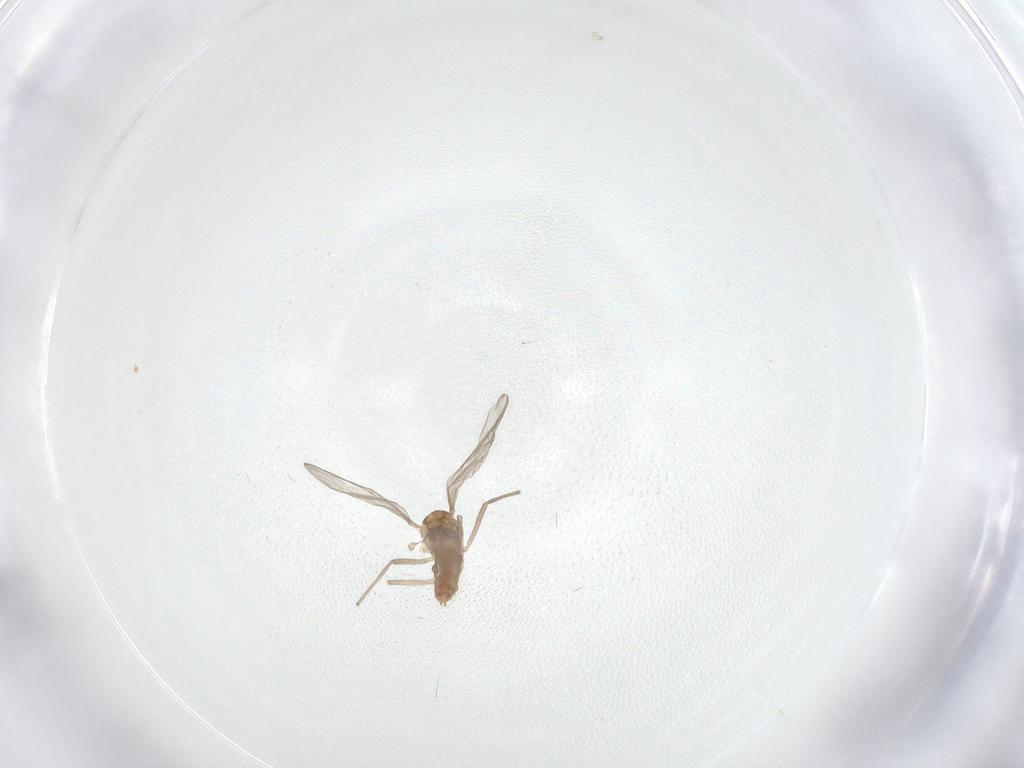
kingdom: Animalia
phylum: Arthropoda
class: Insecta
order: Diptera
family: Chironomidae
